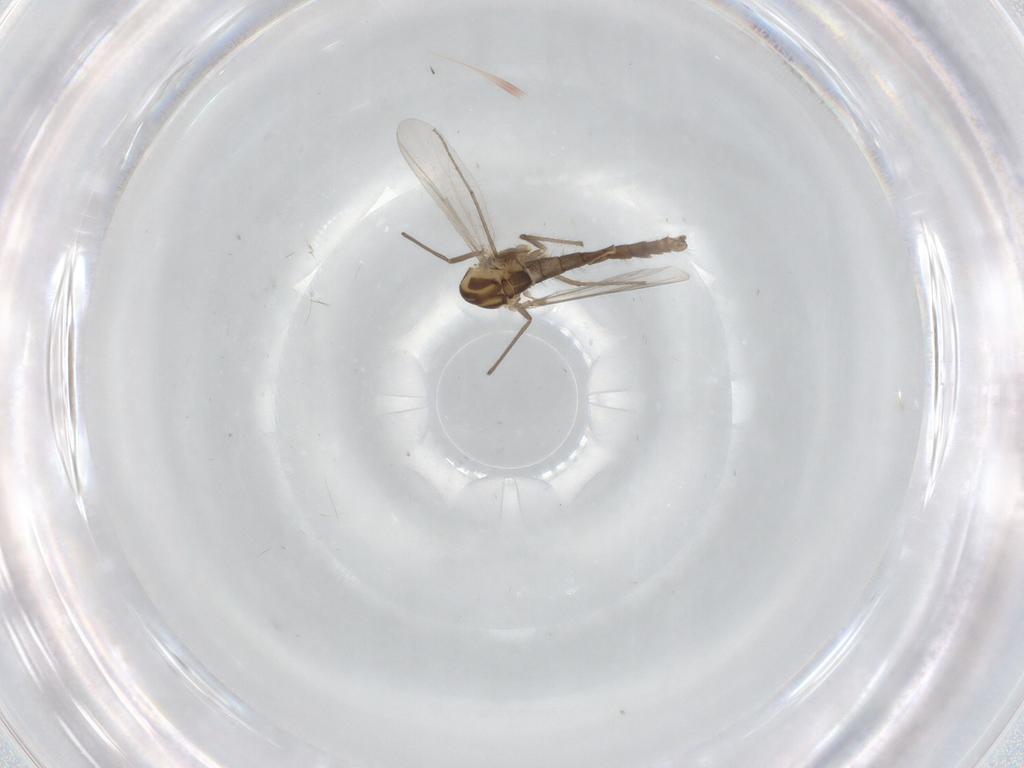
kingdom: Animalia
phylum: Arthropoda
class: Insecta
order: Diptera
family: Chironomidae
